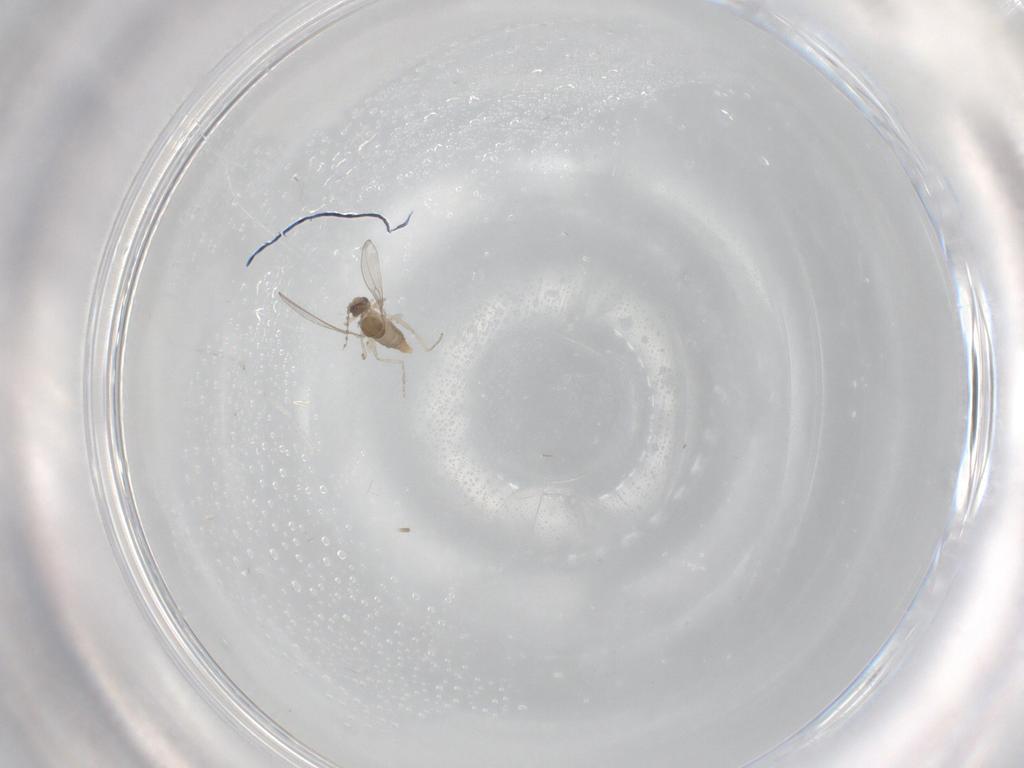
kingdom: Animalia
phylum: Arthropoda
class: Insecta
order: Diptera
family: Cecidomyiidae
